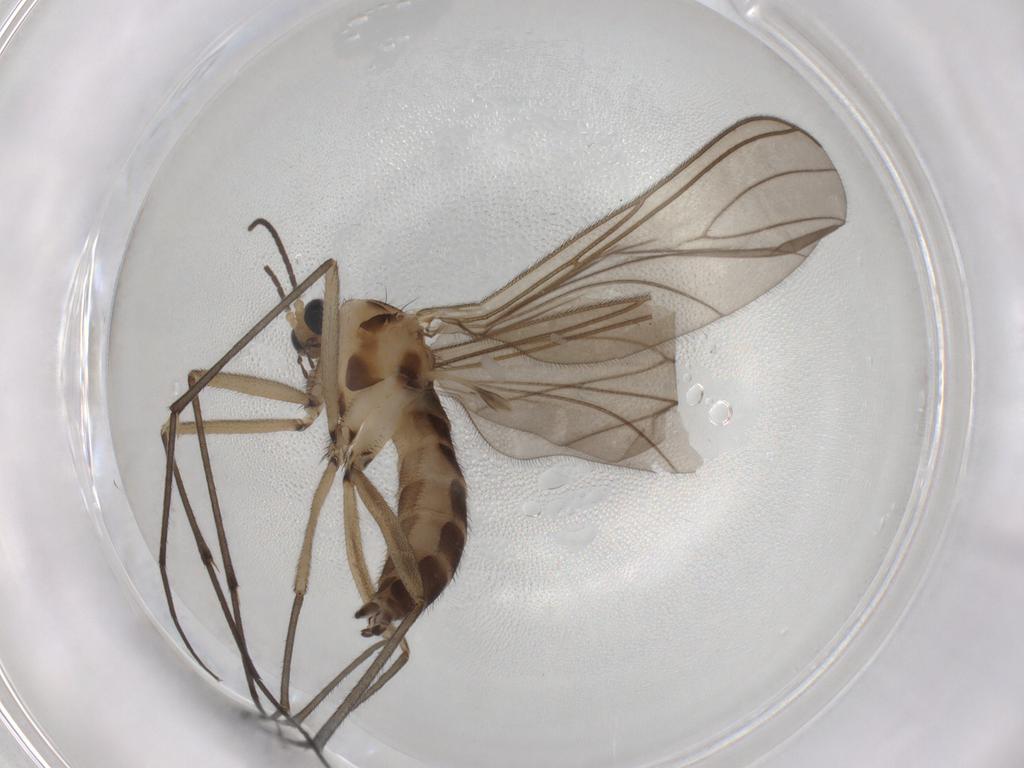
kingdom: Animalia
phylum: Arthropoda
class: Insecta
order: Diptera
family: Sciaridae
